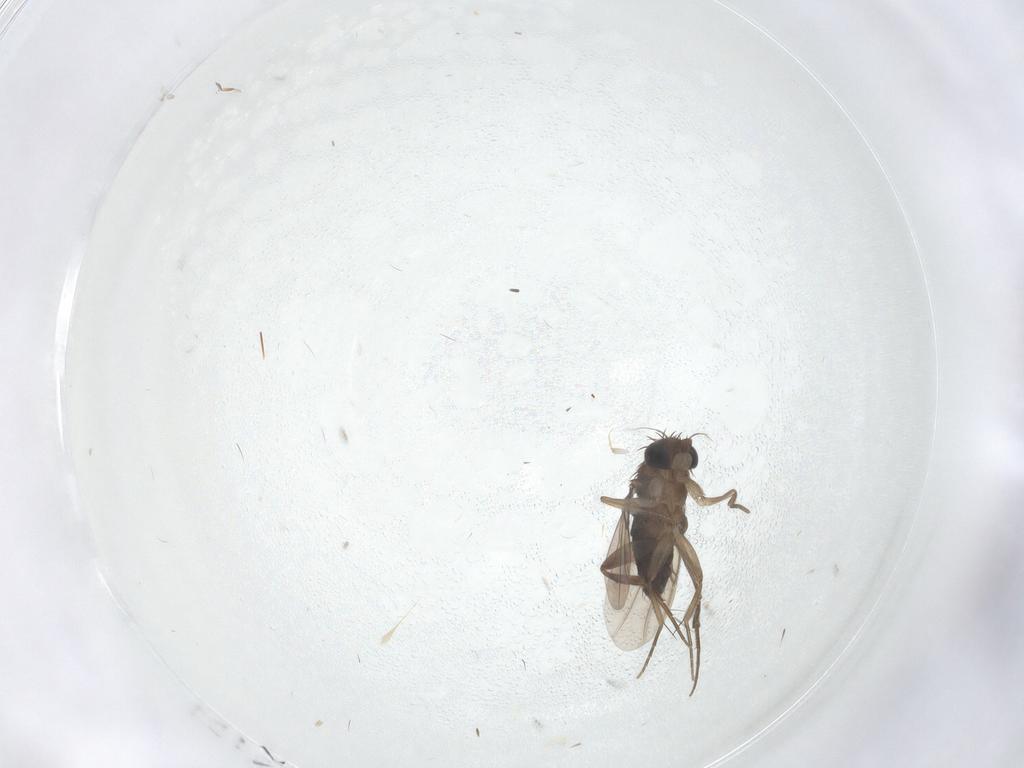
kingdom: Animalia
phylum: Arthropoda
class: Insecta
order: Diptera
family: Phoridae
